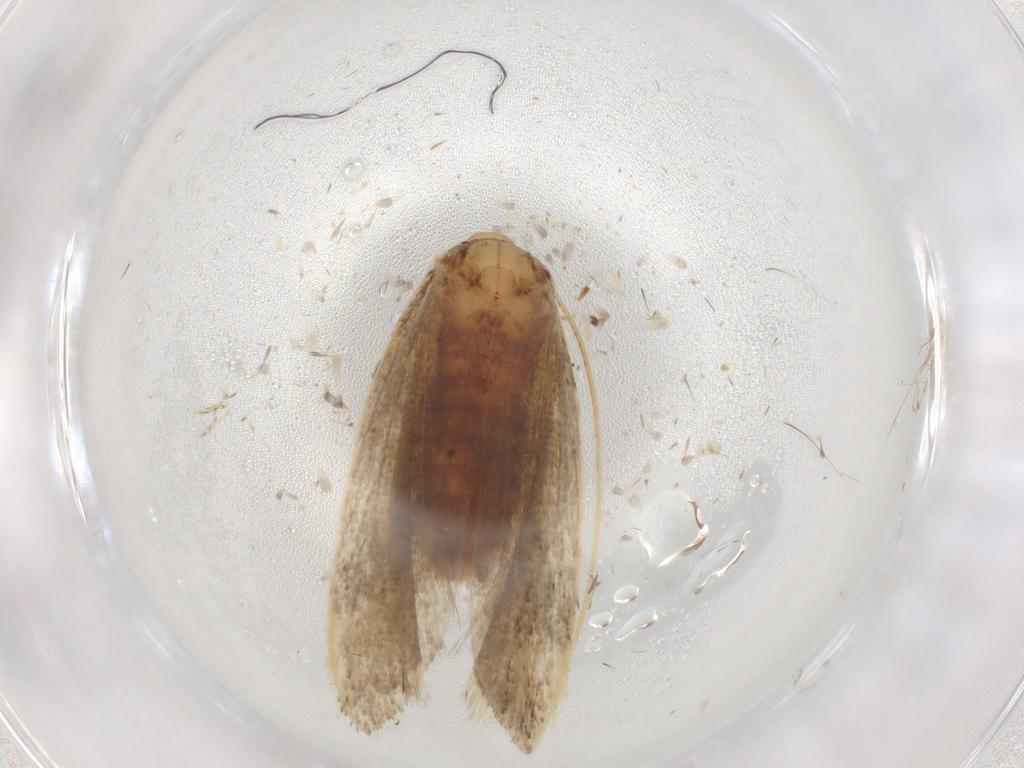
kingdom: Animalia
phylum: Arthropoda
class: Insecta
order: Lepidoptera
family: Lecithoceridae
